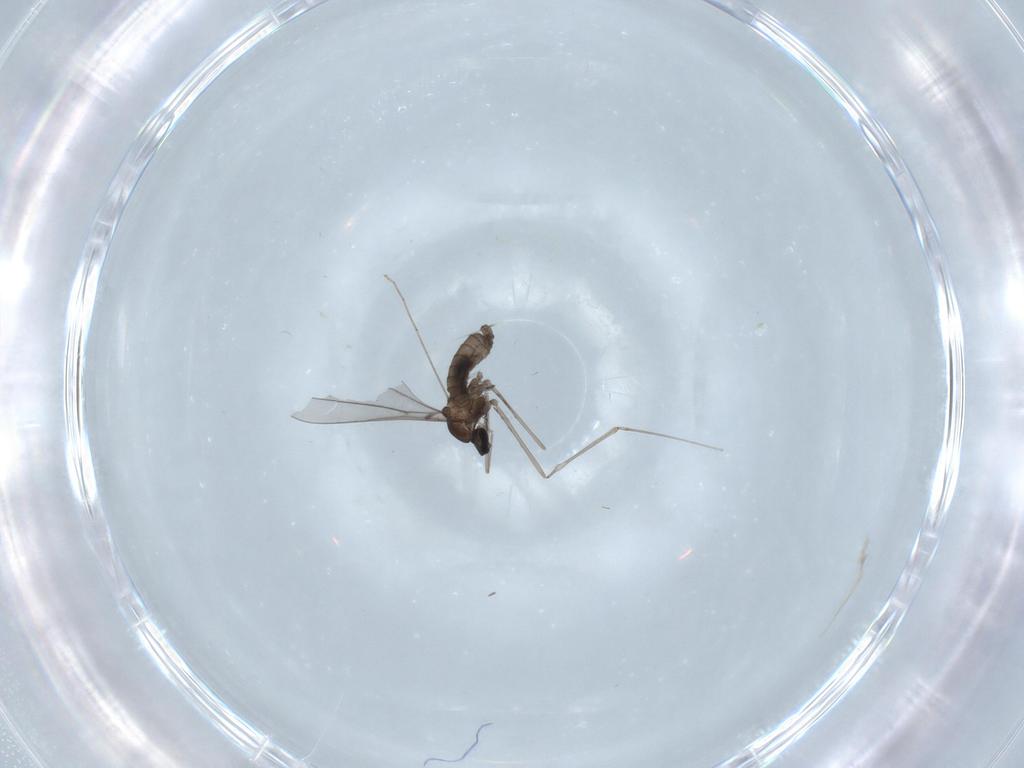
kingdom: Animalia
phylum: Arthropoda
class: Insecta
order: Diptera
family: Cecidomyiidae
